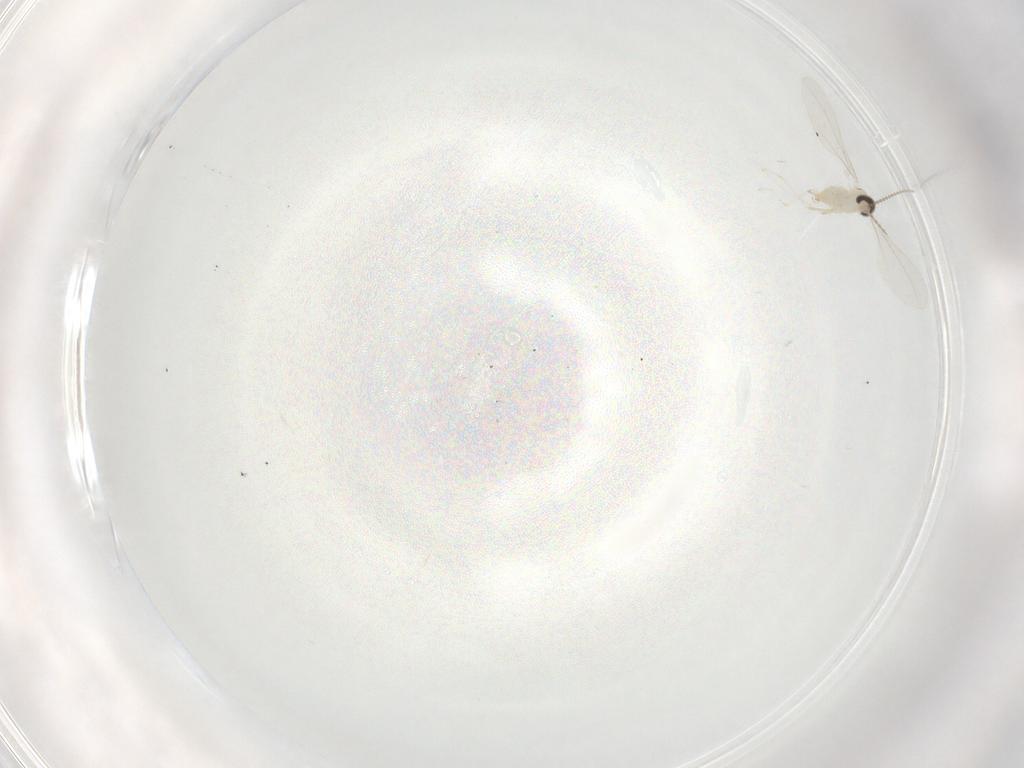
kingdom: Animalia
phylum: Arthropoda
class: Insecta
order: Diptera
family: Cecidomyiidae
